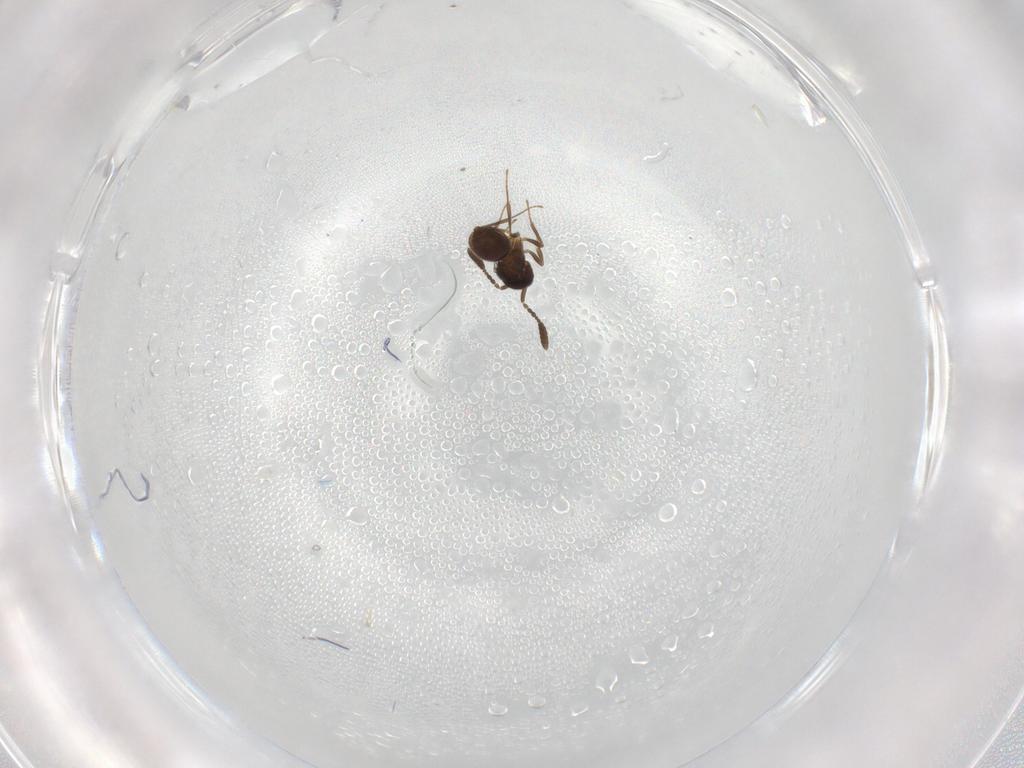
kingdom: Animalia
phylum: Arthropoda
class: Insecta
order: Hymenoptera
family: Scelionidae
